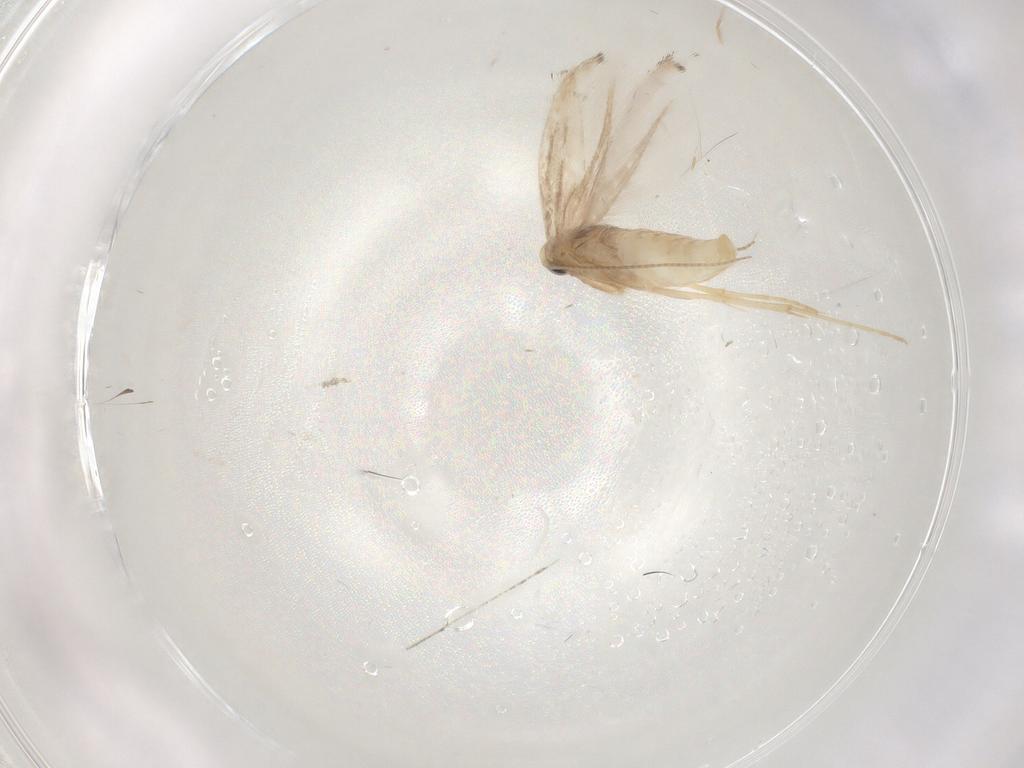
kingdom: Animalia
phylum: Arthropoda
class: Insecta
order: Lepidoptera
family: Gracillariidae
